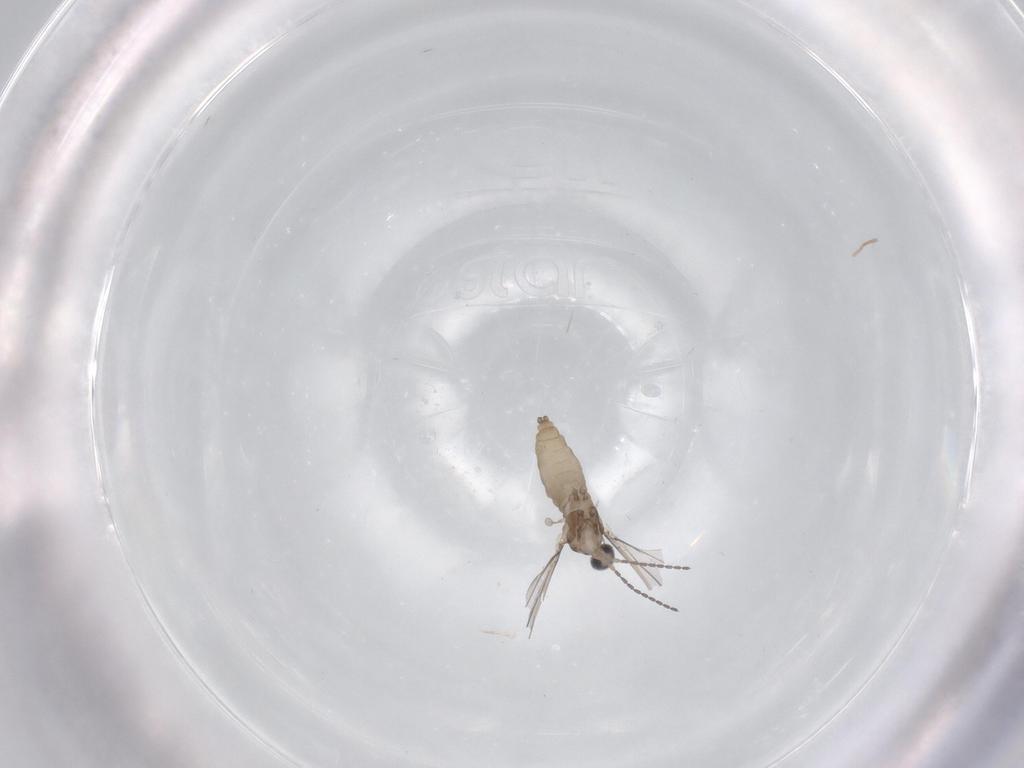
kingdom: Animalia
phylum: Arthropoda
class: Insecta
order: Diptera
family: Cecidomyiidae
